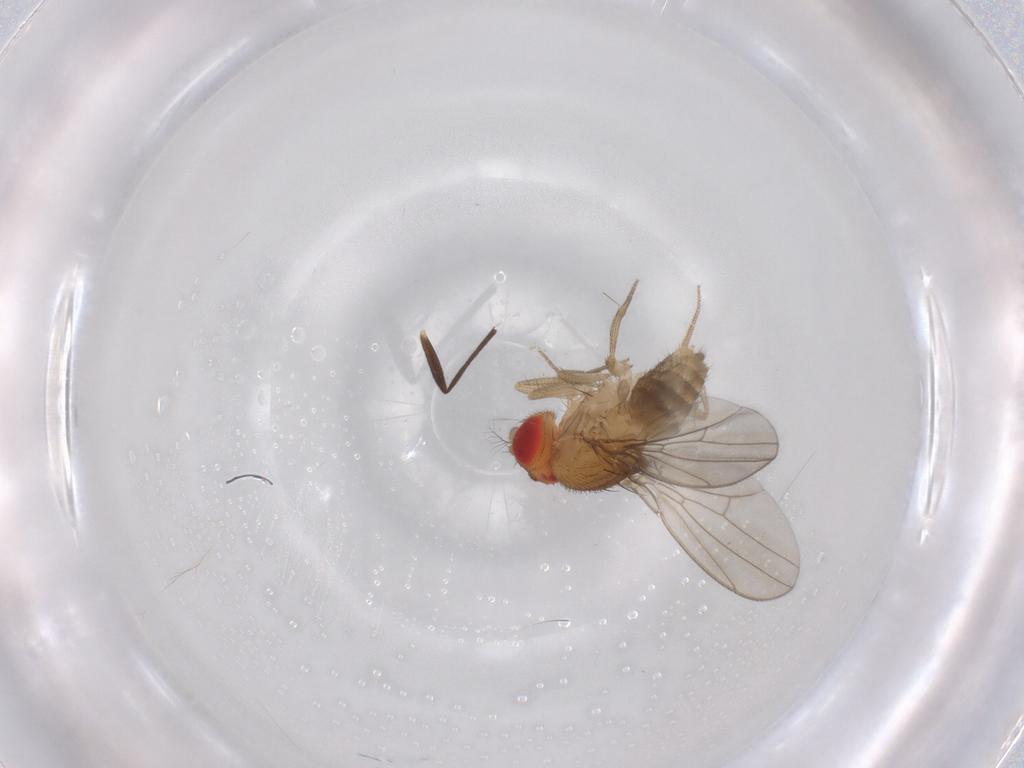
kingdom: Animalia
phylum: Arthropoda
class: Insecta
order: Diptera
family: Drosophilidae
